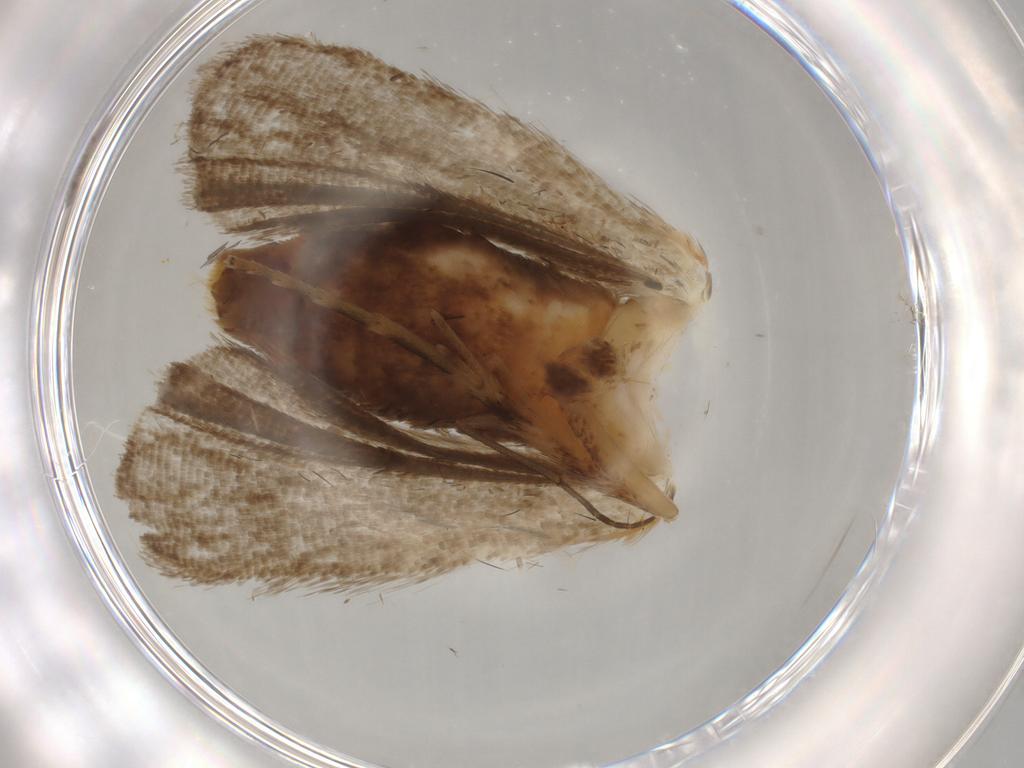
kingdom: Animalia
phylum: Arthropoda
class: Insecta
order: Lepidoptera
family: Erebidae
